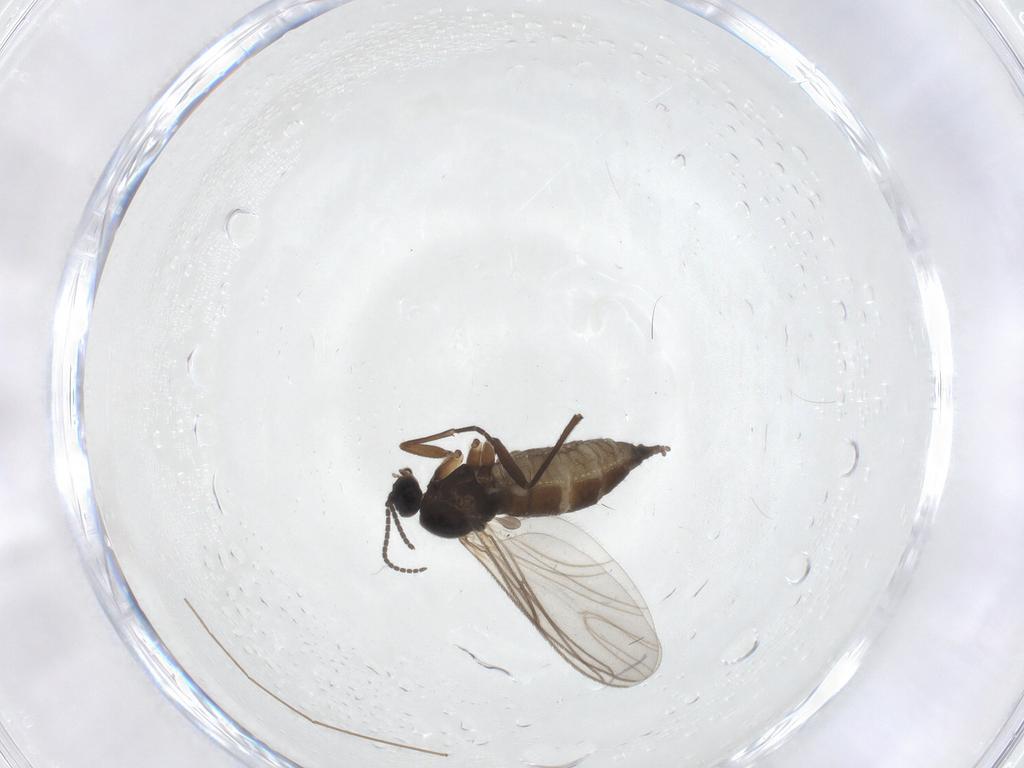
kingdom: Animalia
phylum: Arthropoda
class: Insecta
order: Diptera
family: Sciaridae
